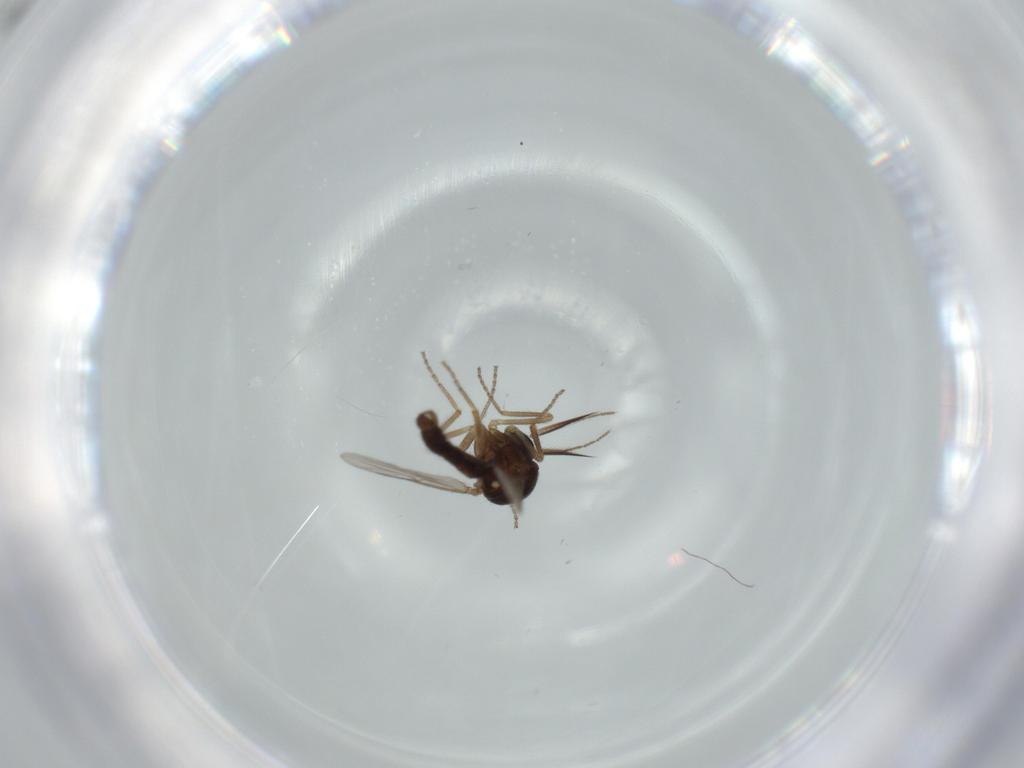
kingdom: Animalia
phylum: Arthropoda
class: Insecta
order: Diptera
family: Ceratopogonidae
